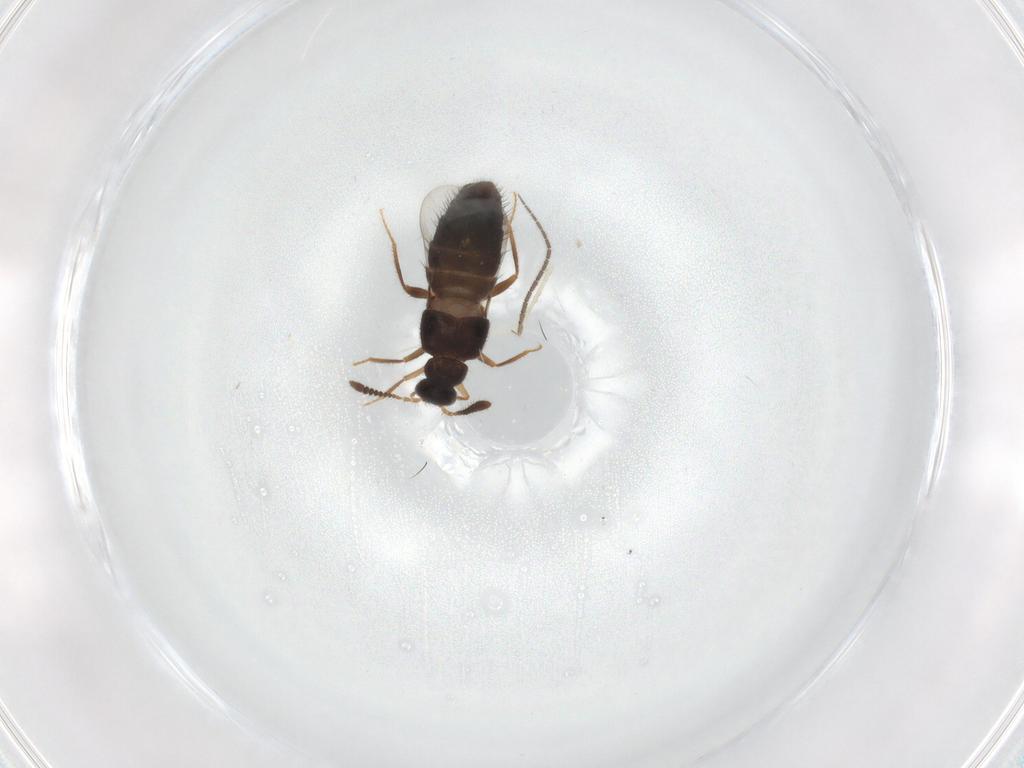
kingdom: Animalia
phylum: Arthropoda
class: Insecta
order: Coleoptera
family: Staphylinidae
